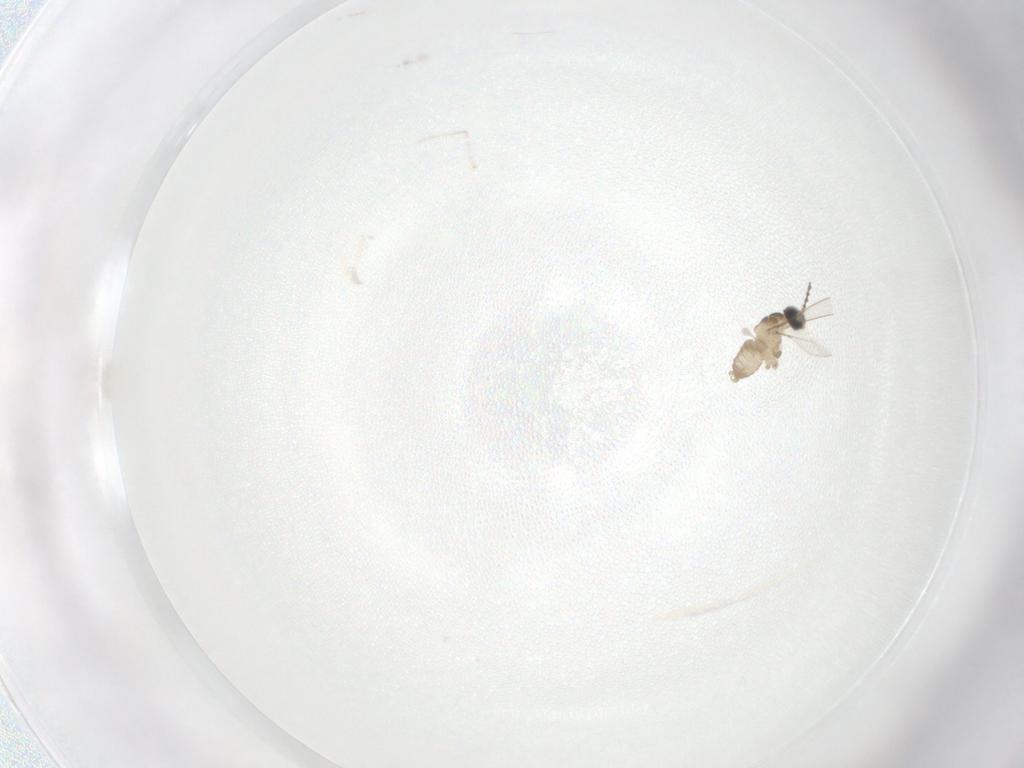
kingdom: Animalia
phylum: Arthropoda
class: Insecta
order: Diptera
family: Cecidomyiidae
